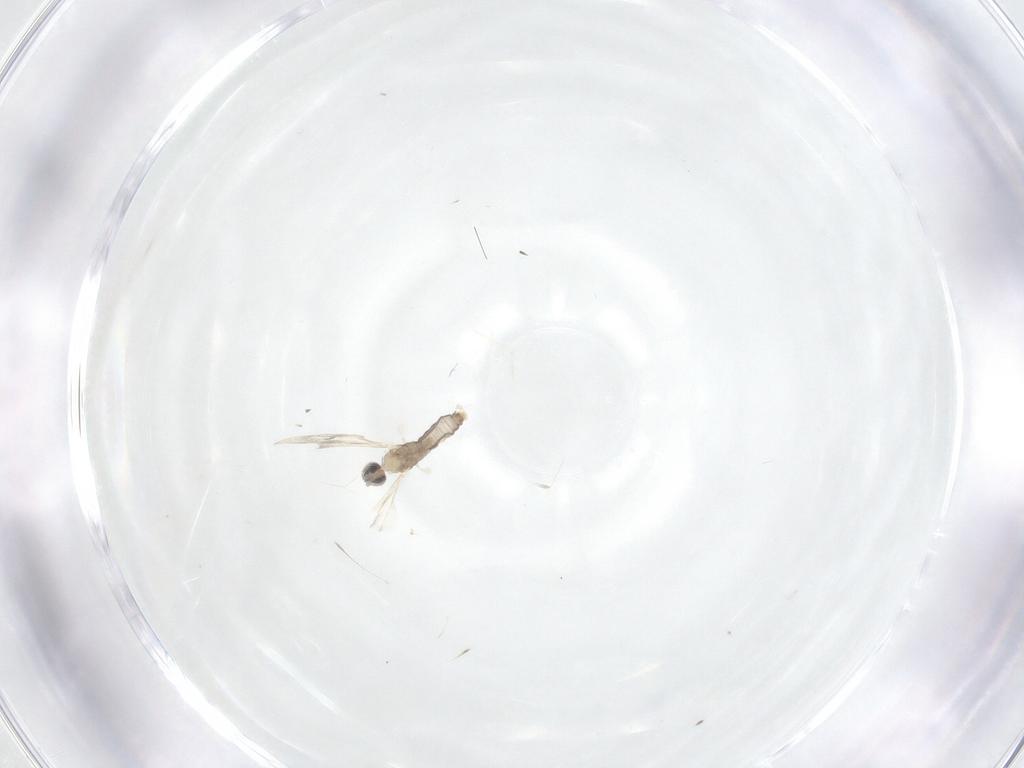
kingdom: Animalia
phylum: Arthropoda
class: Insecta
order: Diptera
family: Cecidomyiidae
